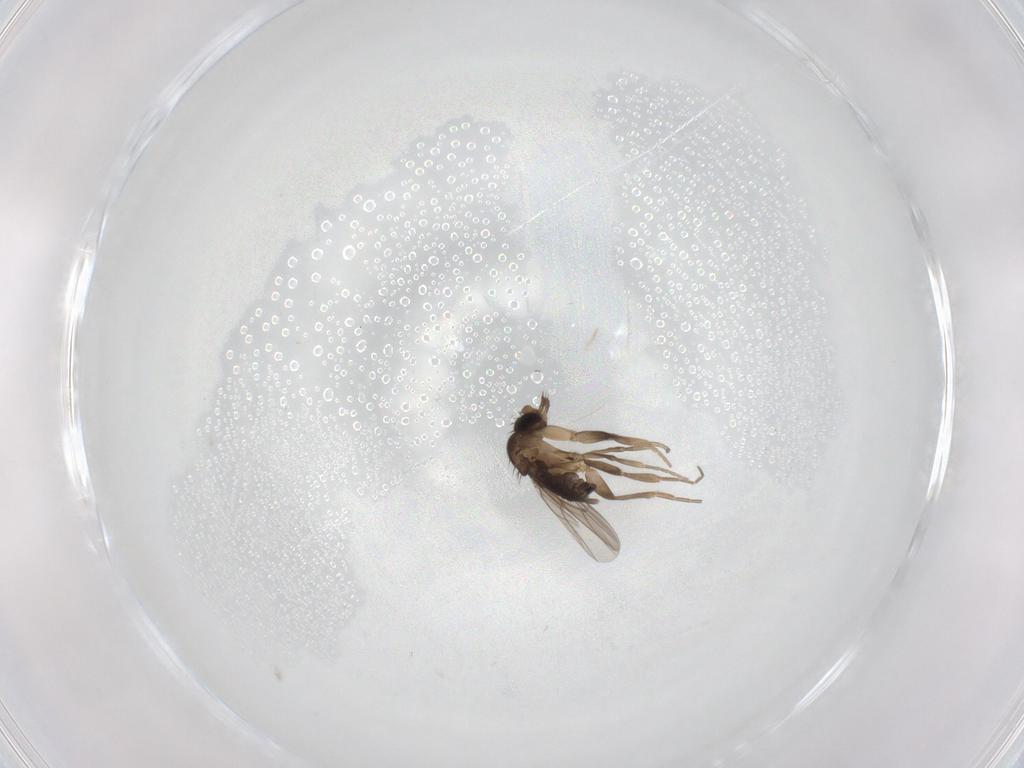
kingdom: Animalia
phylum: Arthropoda
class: Insecta
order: Diptera
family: Phoridae
